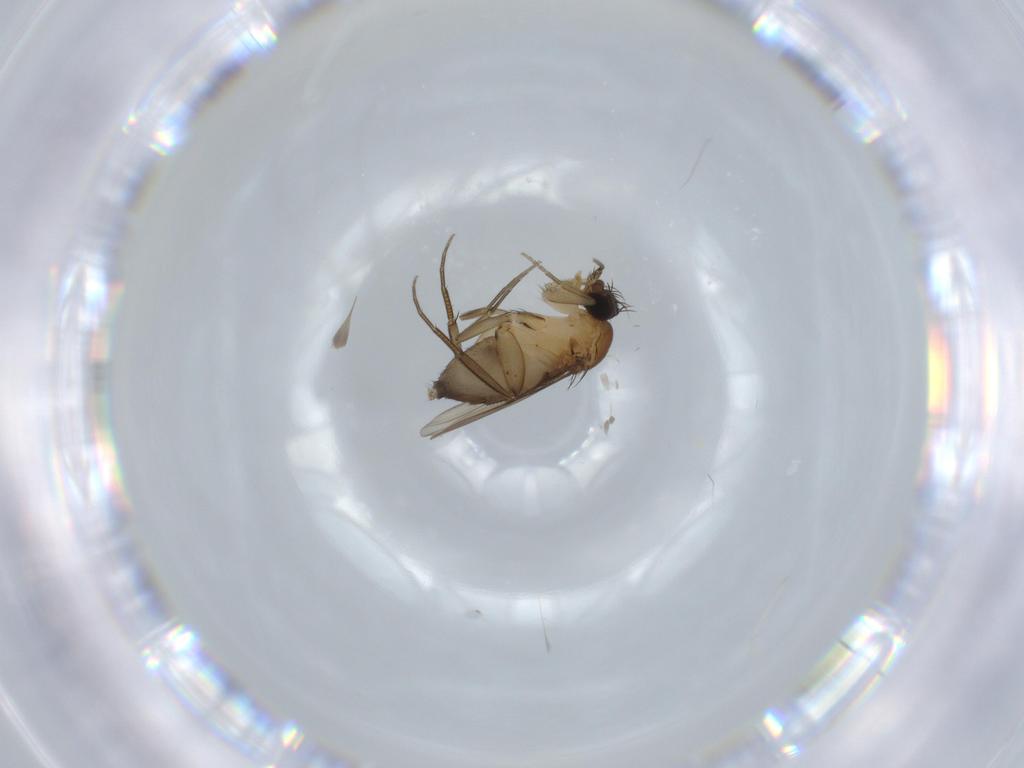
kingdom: Animalia
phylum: Arthropoda
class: Insecta
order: Diptera
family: Phoridae
